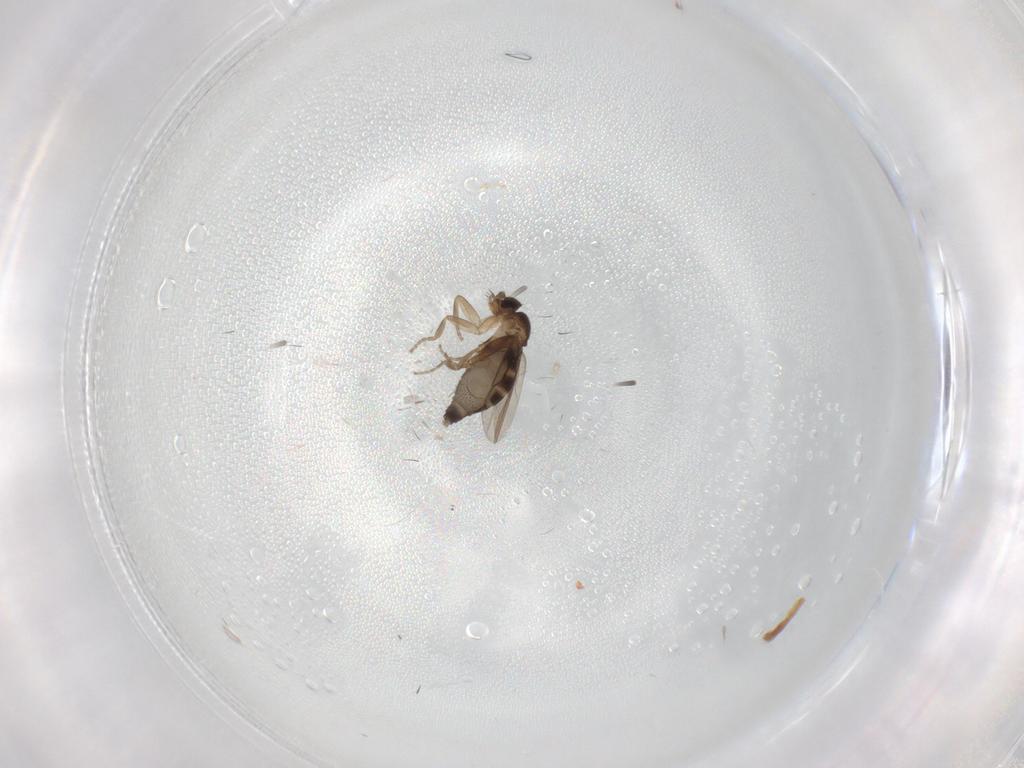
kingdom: Animalia
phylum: Arthropoda
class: Insecta
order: Diptera
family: Phoridae
